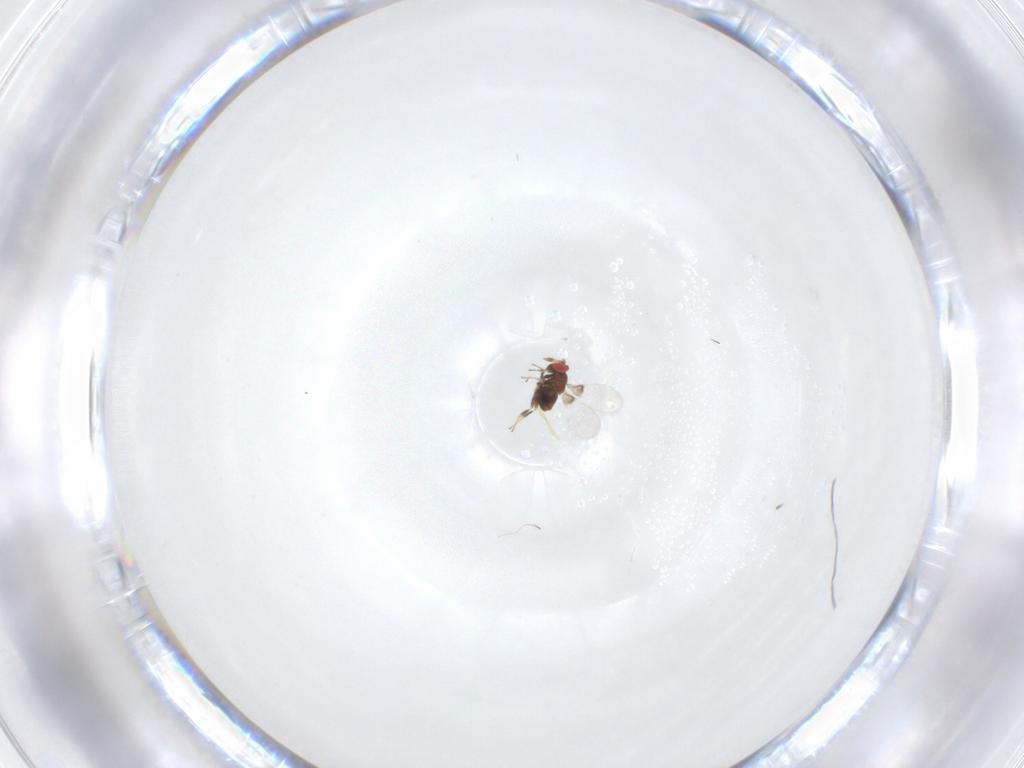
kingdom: Animalia
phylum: Arthropoda
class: Insecta
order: Hymenoptera
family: Trichogrammatidae
